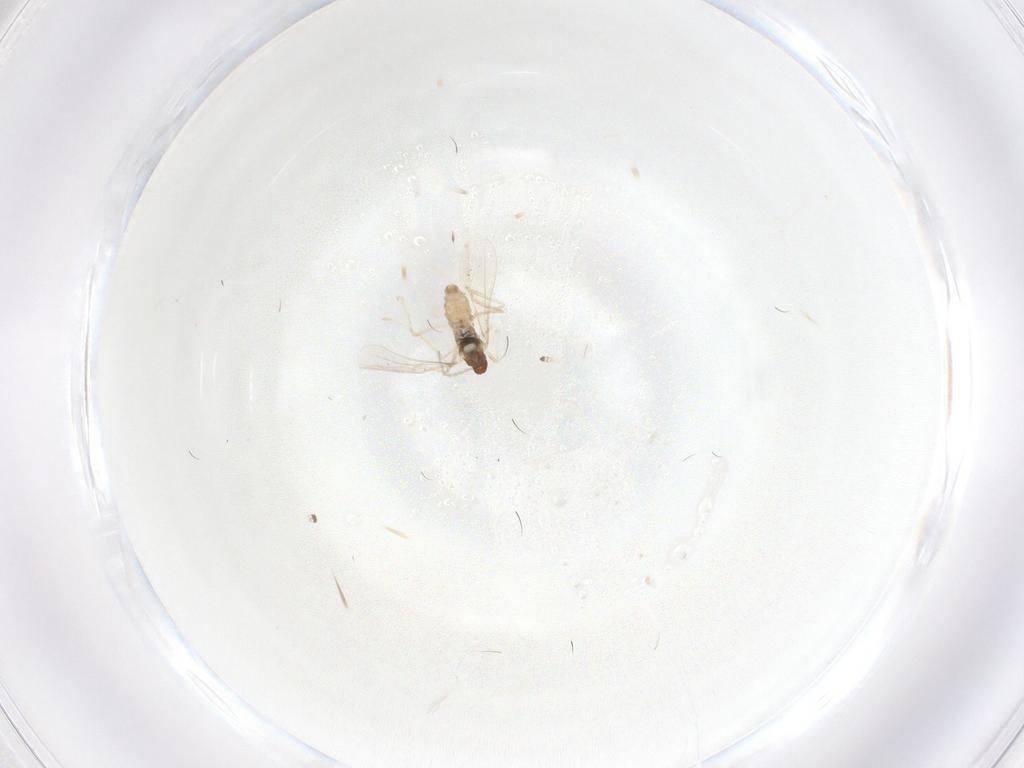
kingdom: Animalia
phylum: Arthropoda
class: Insecta
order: Diptera
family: Cecidomyiidae
